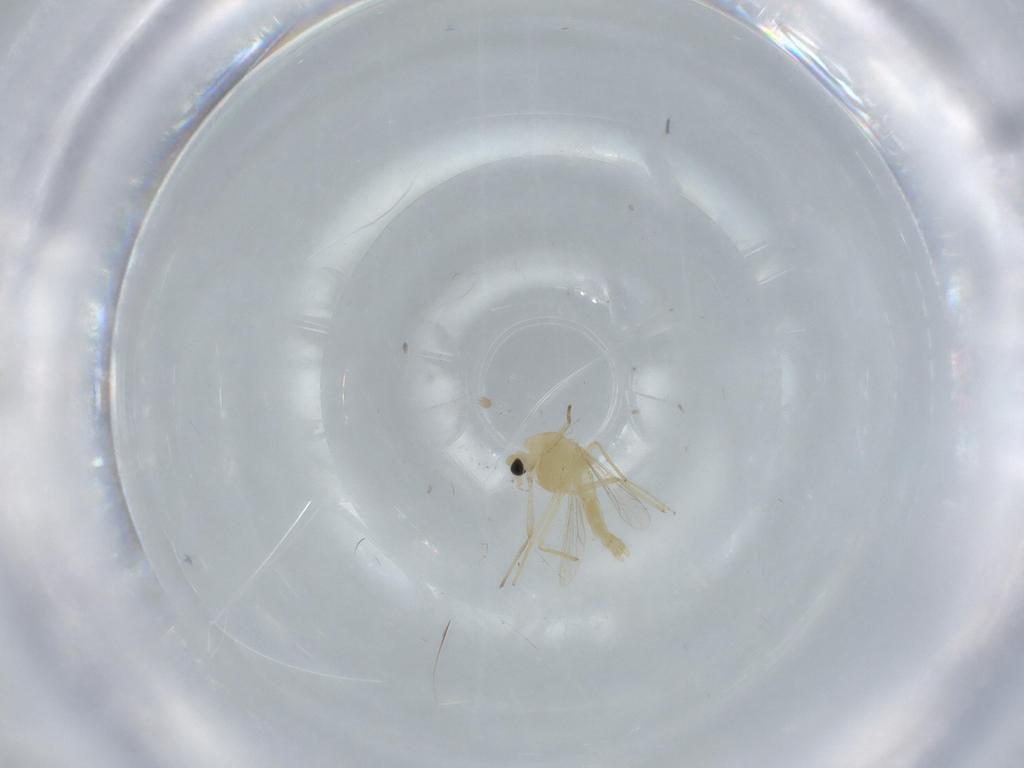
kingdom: Animalia
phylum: Arthropoda
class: Insecta
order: Diptera
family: Chironomidae
